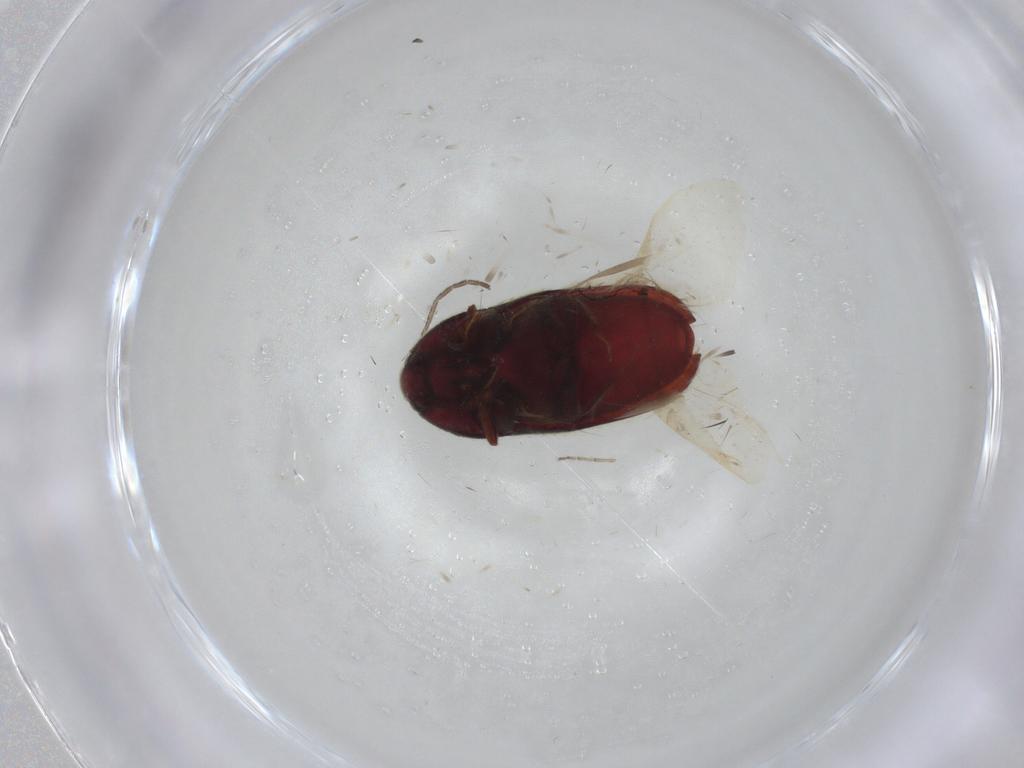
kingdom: Animalia
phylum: Arthropoda
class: Insecta
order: Coleoptera
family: Throscidae
